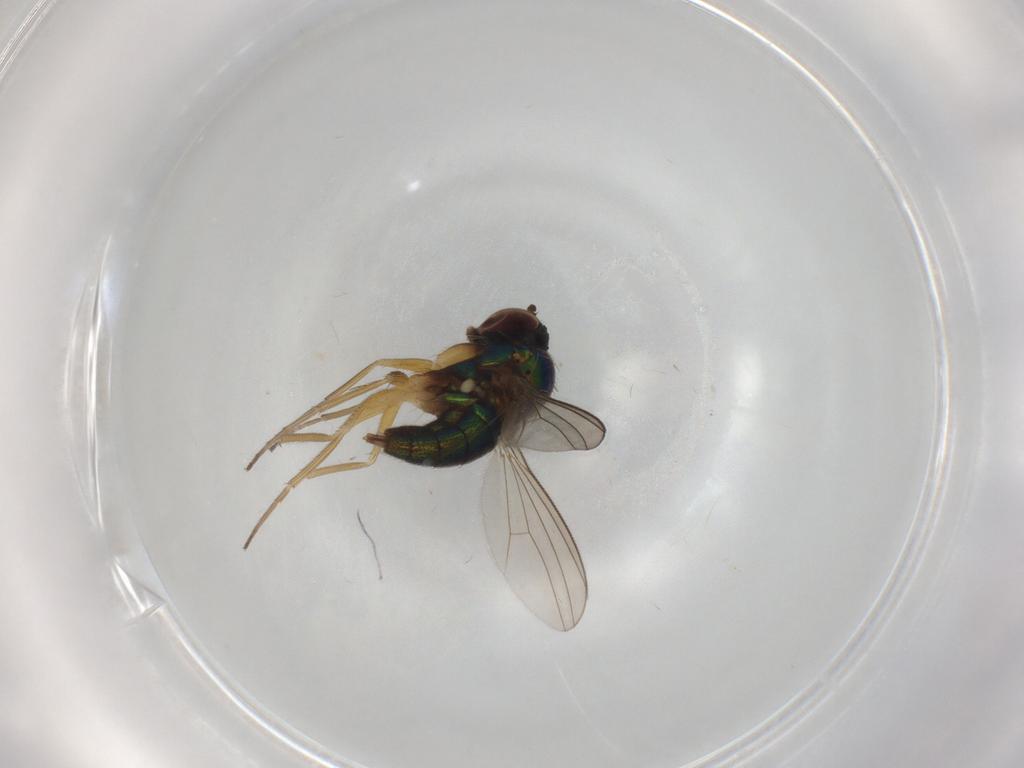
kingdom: Animalia
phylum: Arthropoda
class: Insecta
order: Diptera
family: Dolichopodidae
